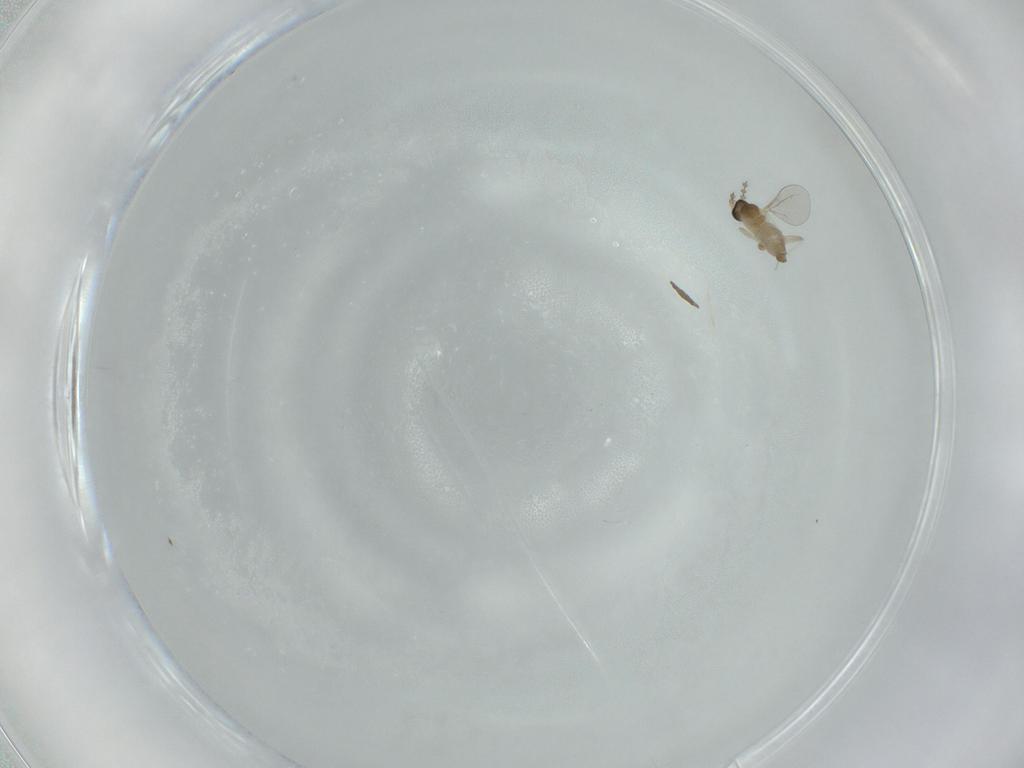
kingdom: Animalia
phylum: Arthropoda
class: Insecta
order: Diptera
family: Cecidomyiidae
